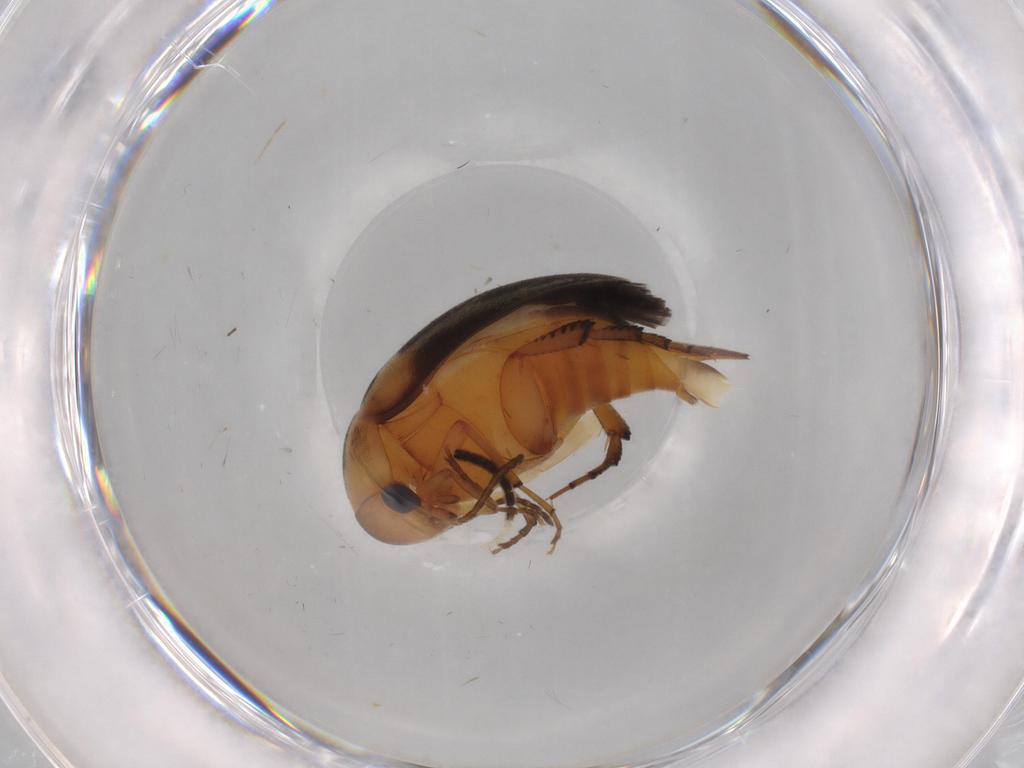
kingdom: Animalia
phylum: Arthropoda
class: Insecta
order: Coleoptera
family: Mordellidae
